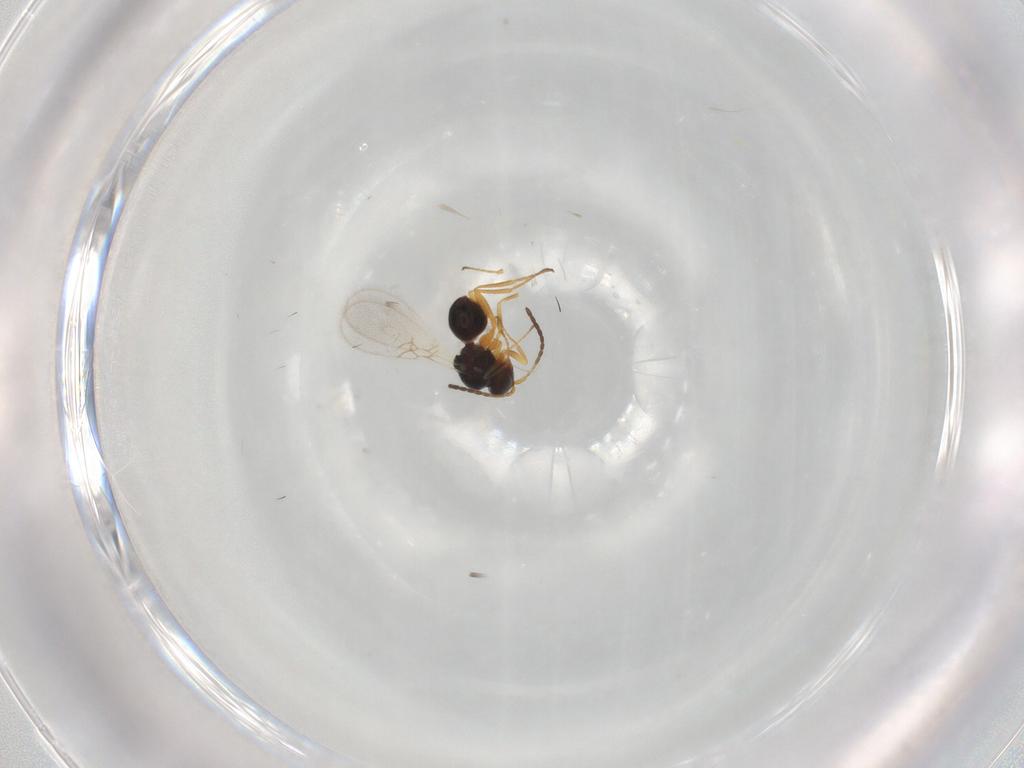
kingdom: Animalia
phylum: Arthropoda
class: Insecta
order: Hymenoptera
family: Figitidae
